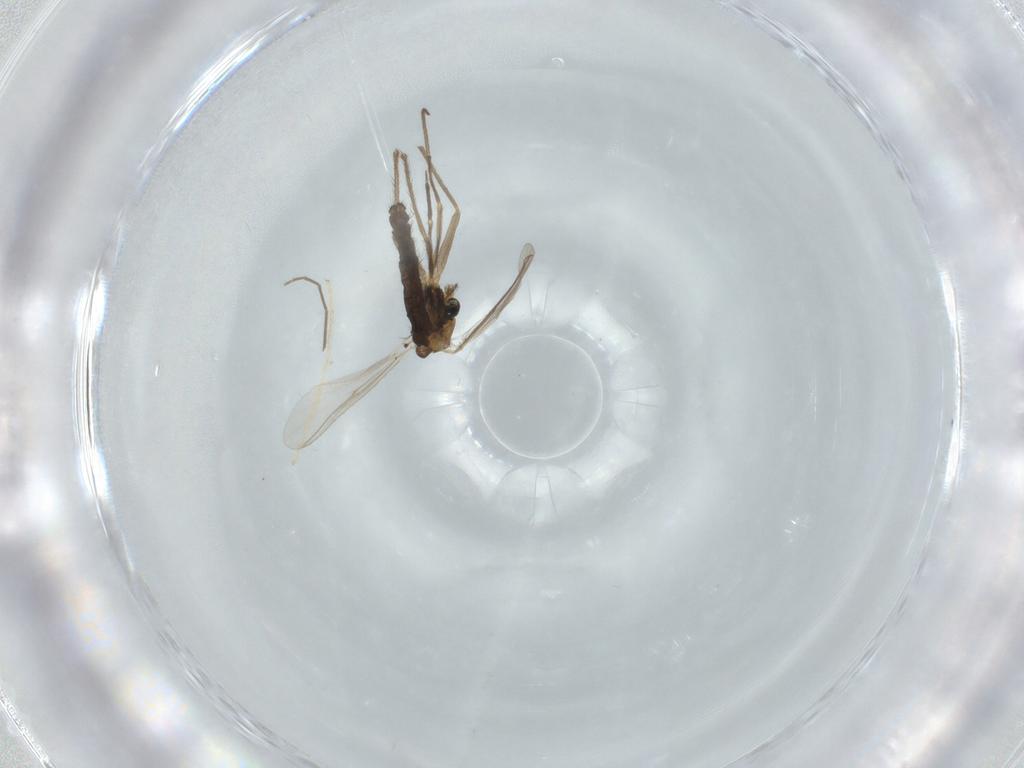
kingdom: Animalia
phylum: Arthropoda
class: Insecta
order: Diptera
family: Chironomidae
